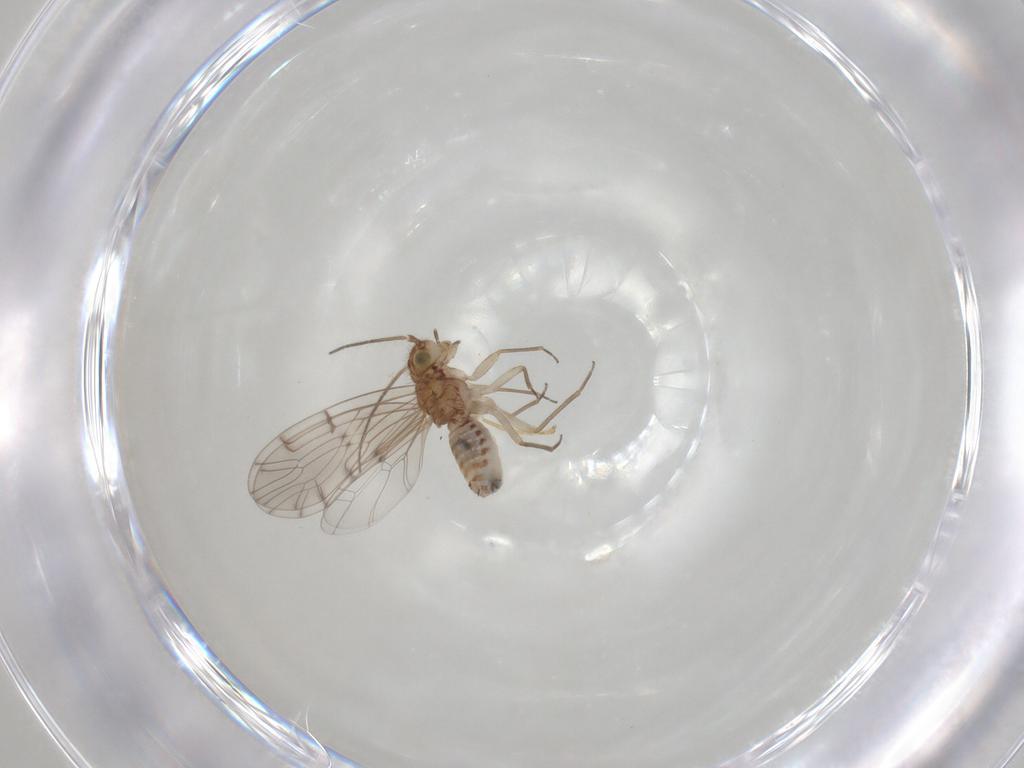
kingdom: Animalia
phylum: Arthropoda
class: Insecta
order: Hymenoptera
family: Formicidae
